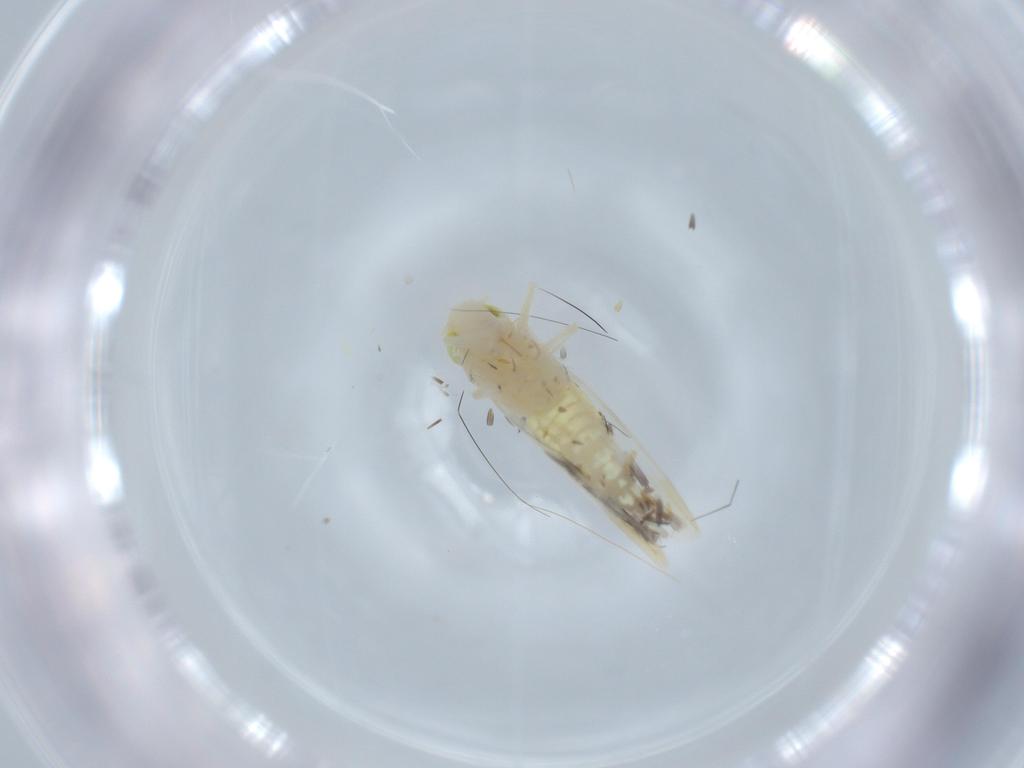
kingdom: Animalia
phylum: Arthropoda
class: Insecta
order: Hemiptera
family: Cicadellidae
